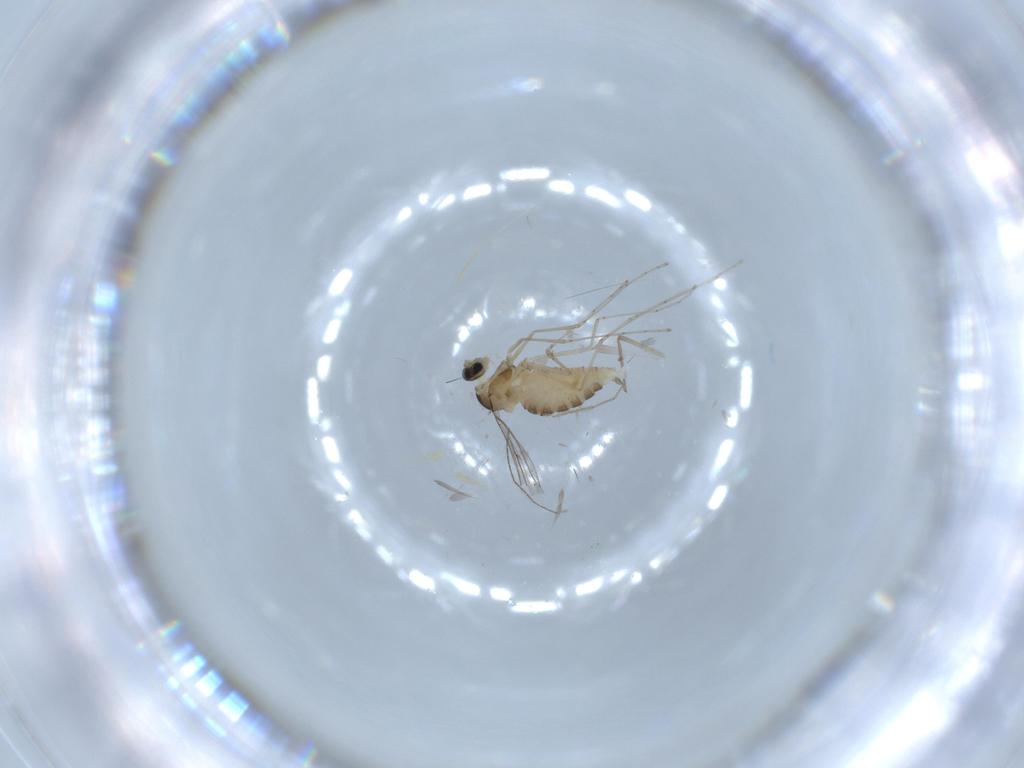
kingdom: Animalia
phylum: Arthropoda
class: Insecta
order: Diptera
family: Cecidomyiidae
